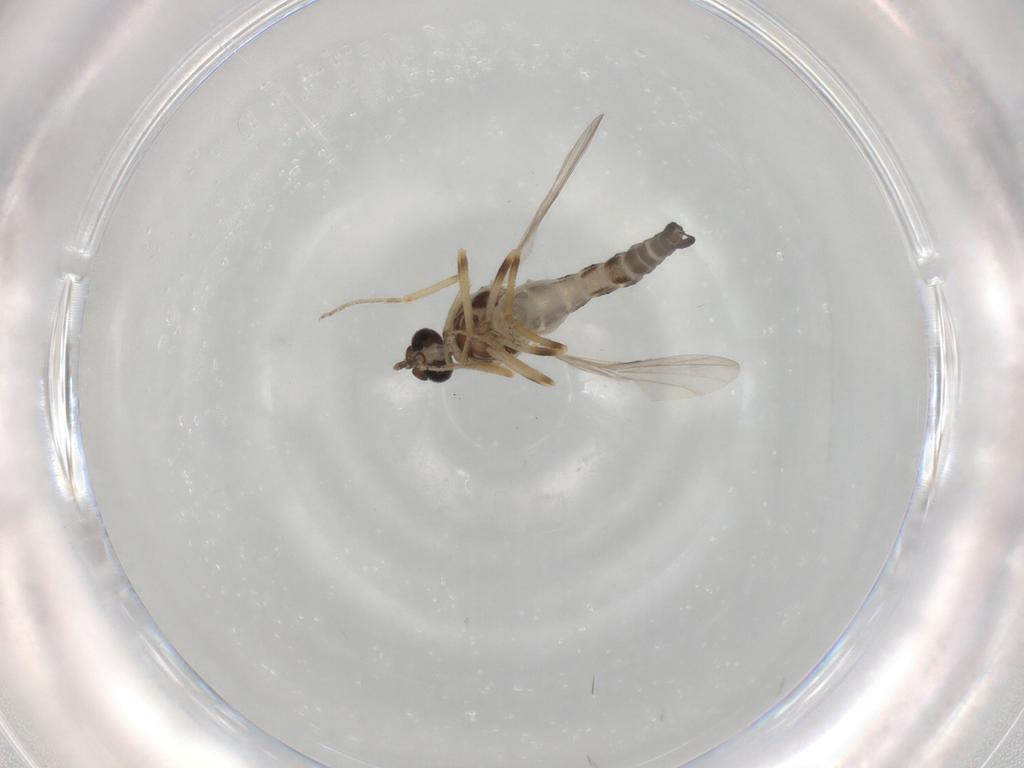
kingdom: Animalia
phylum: Arthropoda
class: Insecta
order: Diptera
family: Ceratopogonidae
